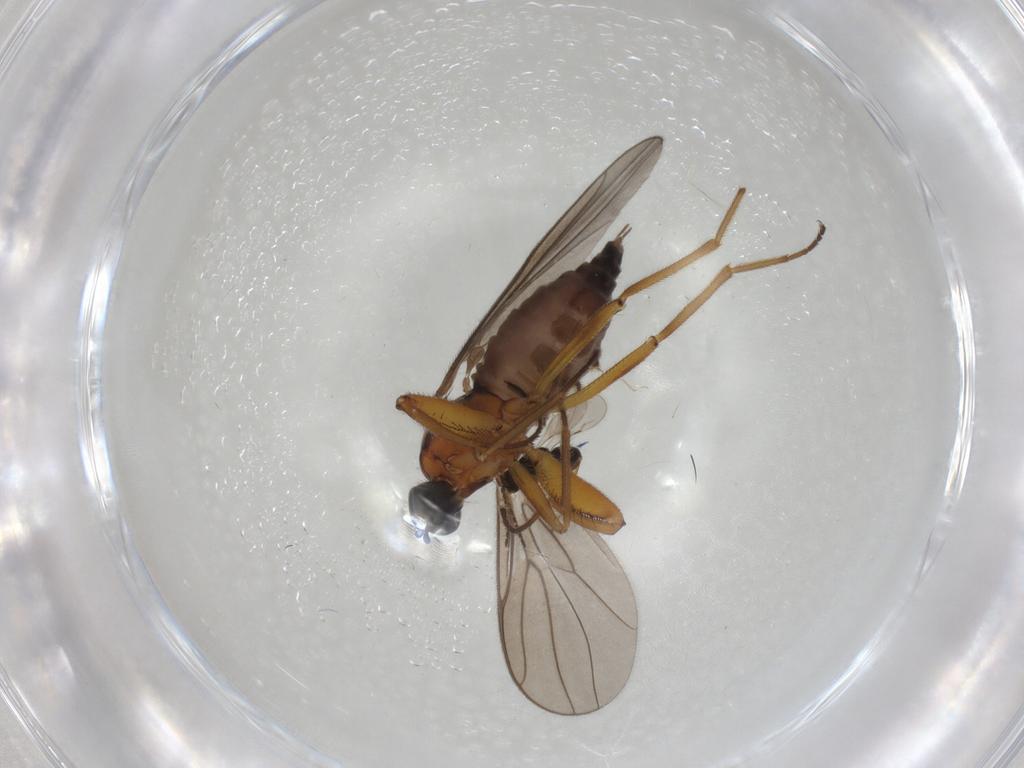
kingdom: Animalia
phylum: Arthropoda
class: Insecta
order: Diptera
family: Hybotidae
